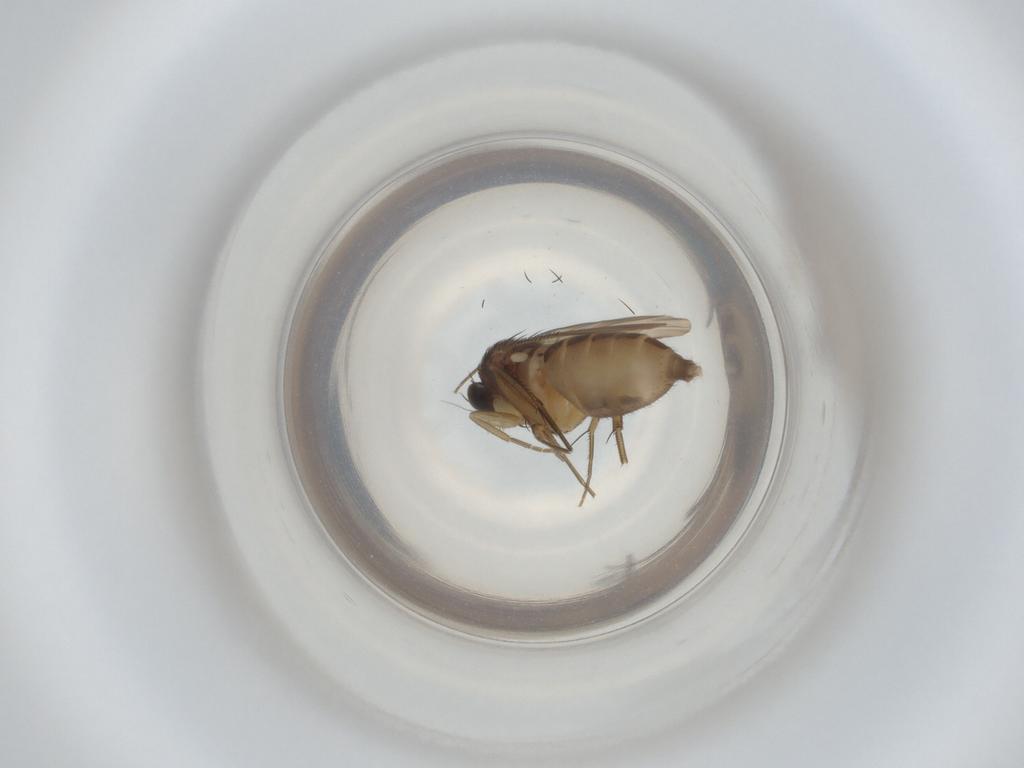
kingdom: Animalia
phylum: Arthropoda
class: Insecta
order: Diptera
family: Phoridae
